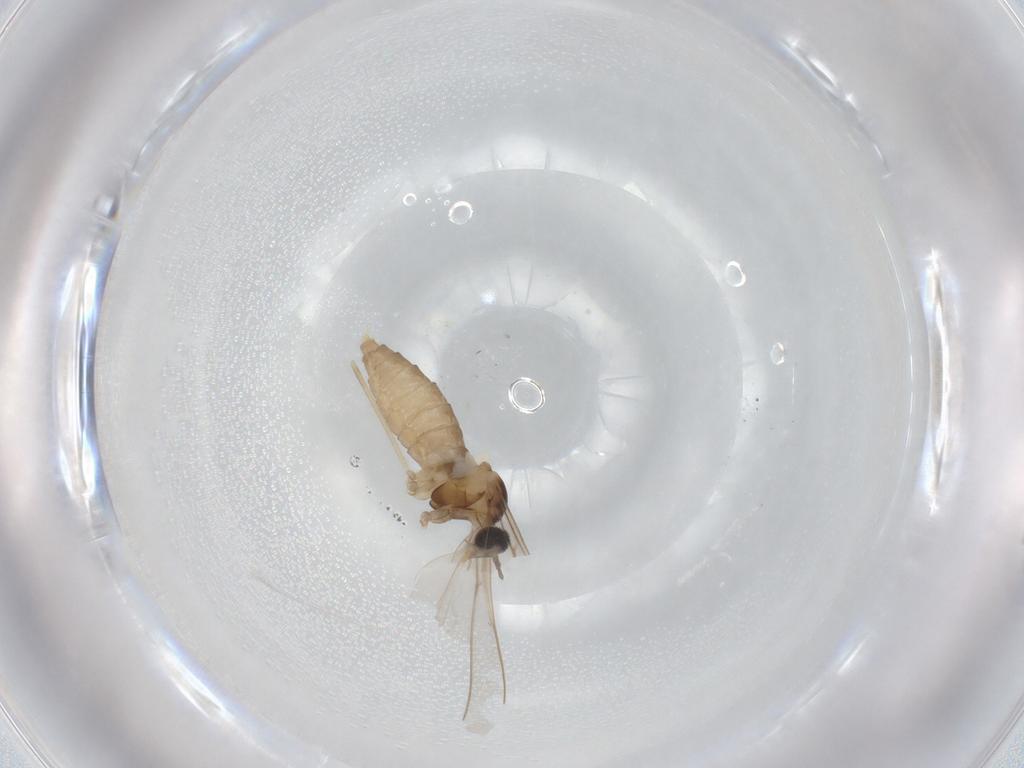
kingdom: Animalia
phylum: Arthropoda
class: Insecta
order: Diptera
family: Cecidomyiidae
